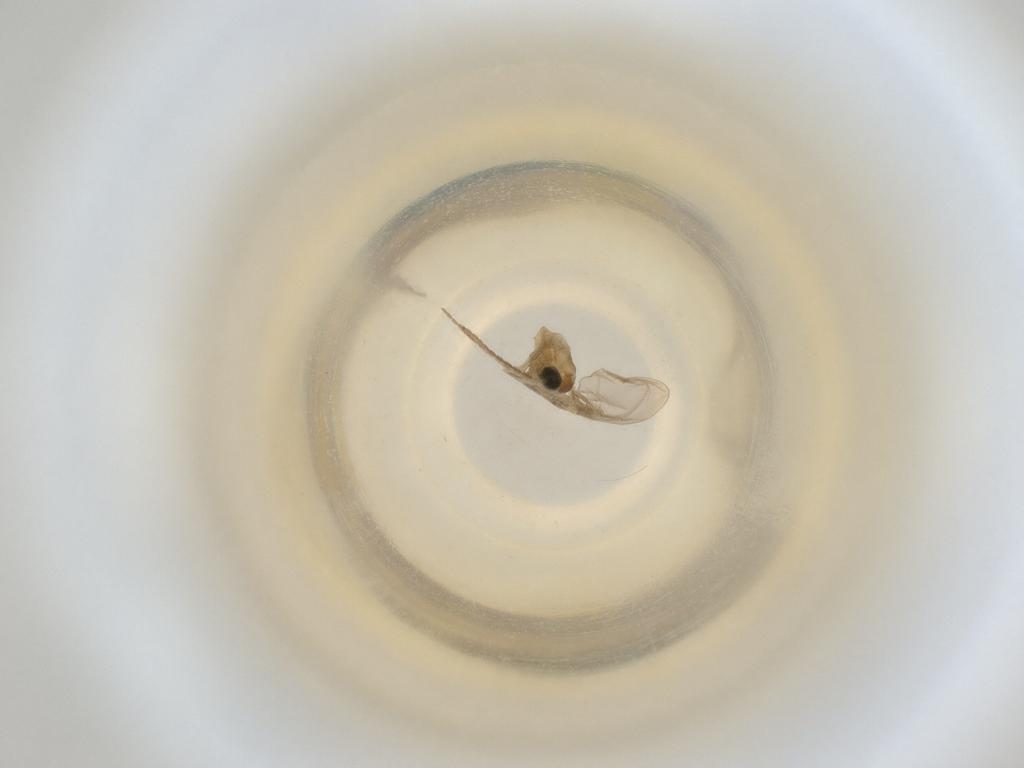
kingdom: Animalia
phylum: Arthropoda
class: Insecta
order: Diptera
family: Cecidomyiidae
